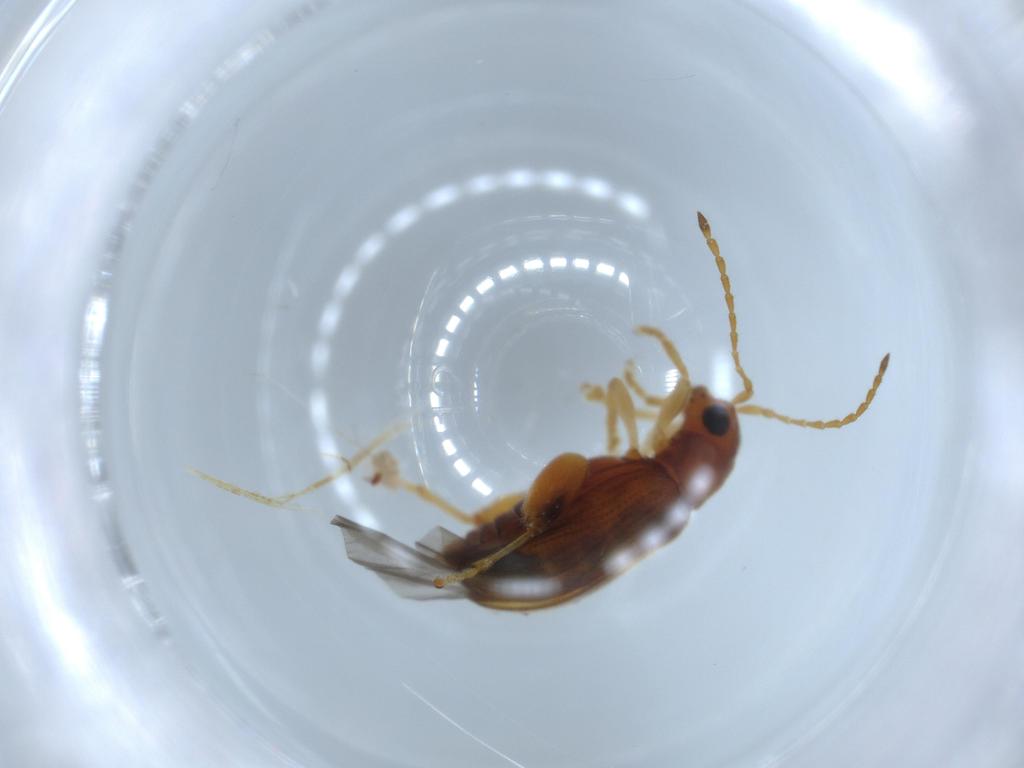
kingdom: Animalia
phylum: Arthropoda
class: Insecta
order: Coleoptera
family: Chrysomelidae
